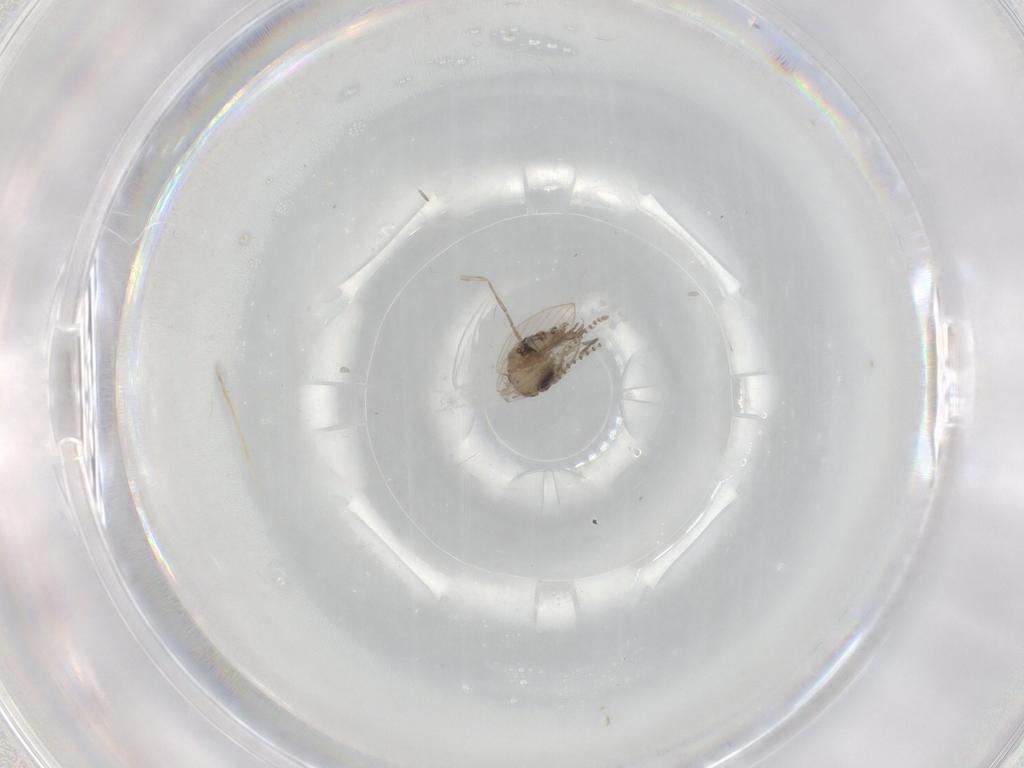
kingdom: Animalia
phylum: Arthropoda
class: Insecta
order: Diptera
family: Psychodidae
